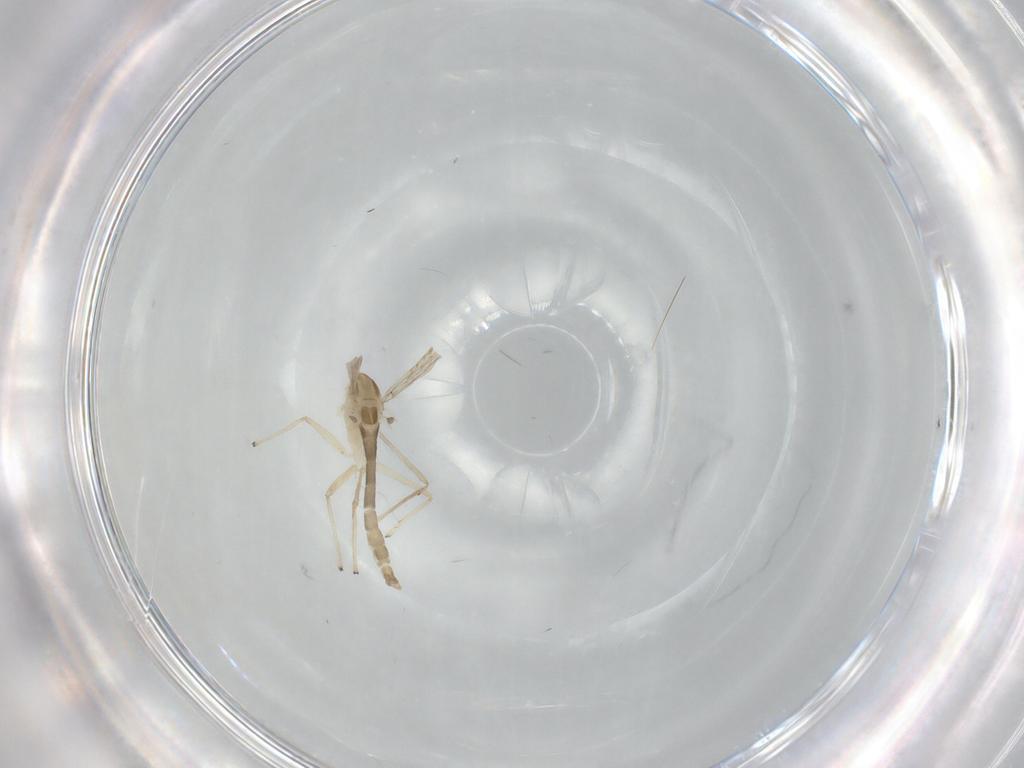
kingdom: Animalia
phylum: Arthropoda
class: Insecta
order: Diptera
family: Chironomidae
